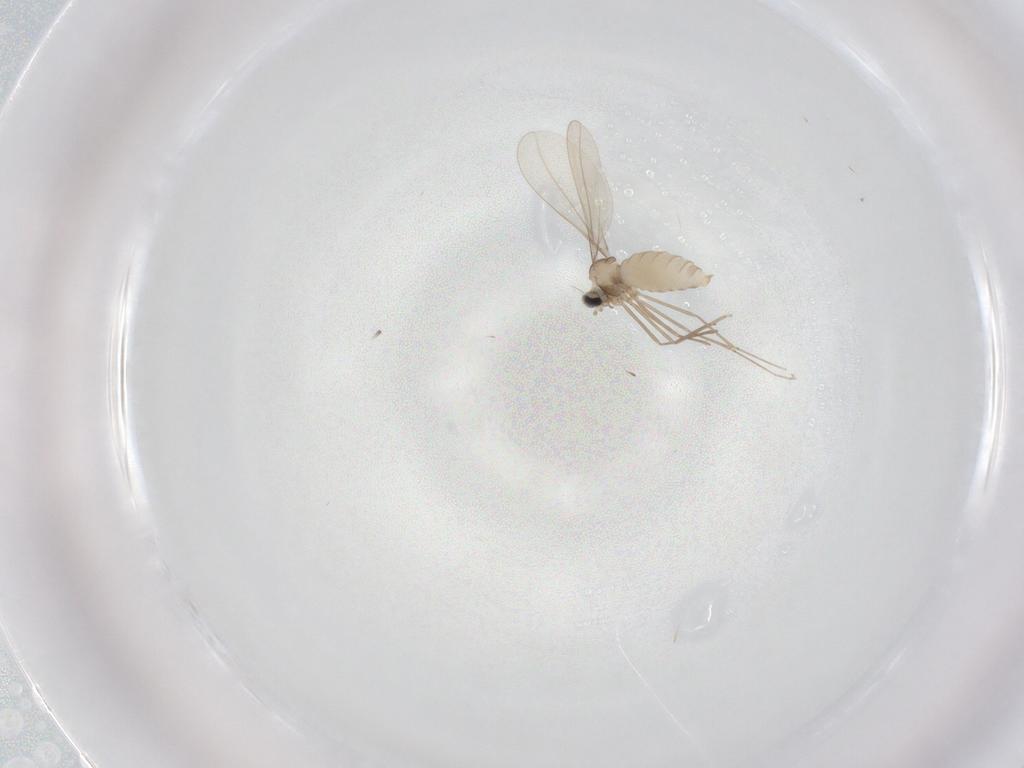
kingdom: Animalia
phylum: Arthropoda
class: Insecta
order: Diptera
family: Cecidomyiidae
